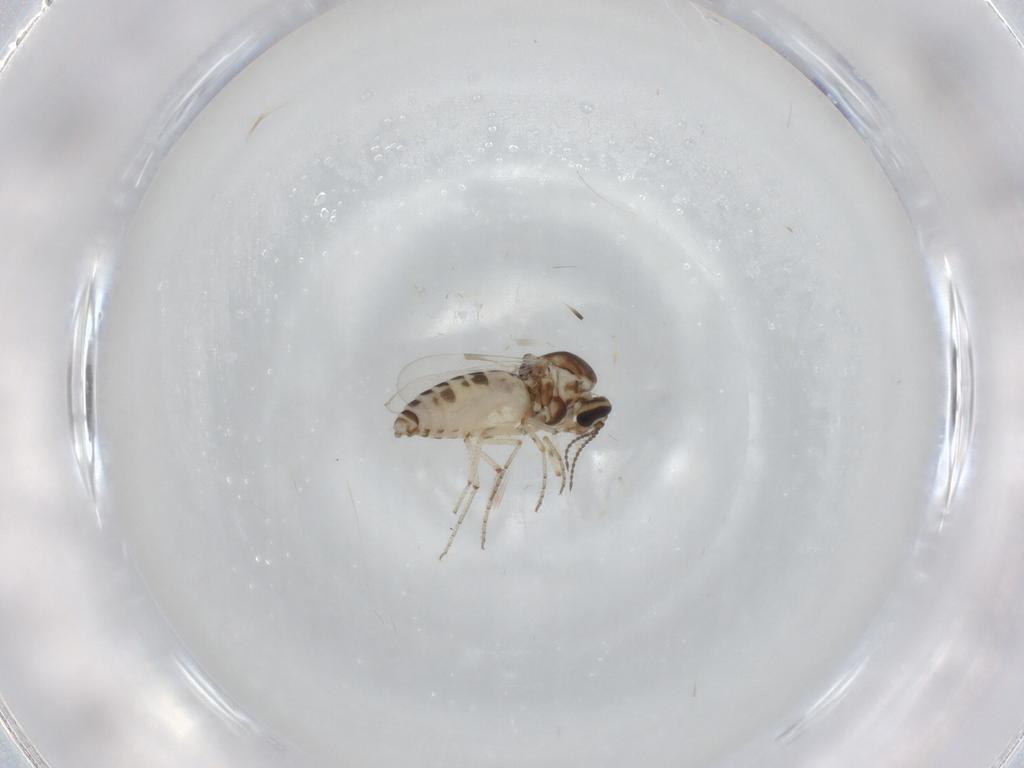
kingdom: Animalia
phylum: Arthropoda
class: Insecta
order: Diptera
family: Ceratopogonidae
